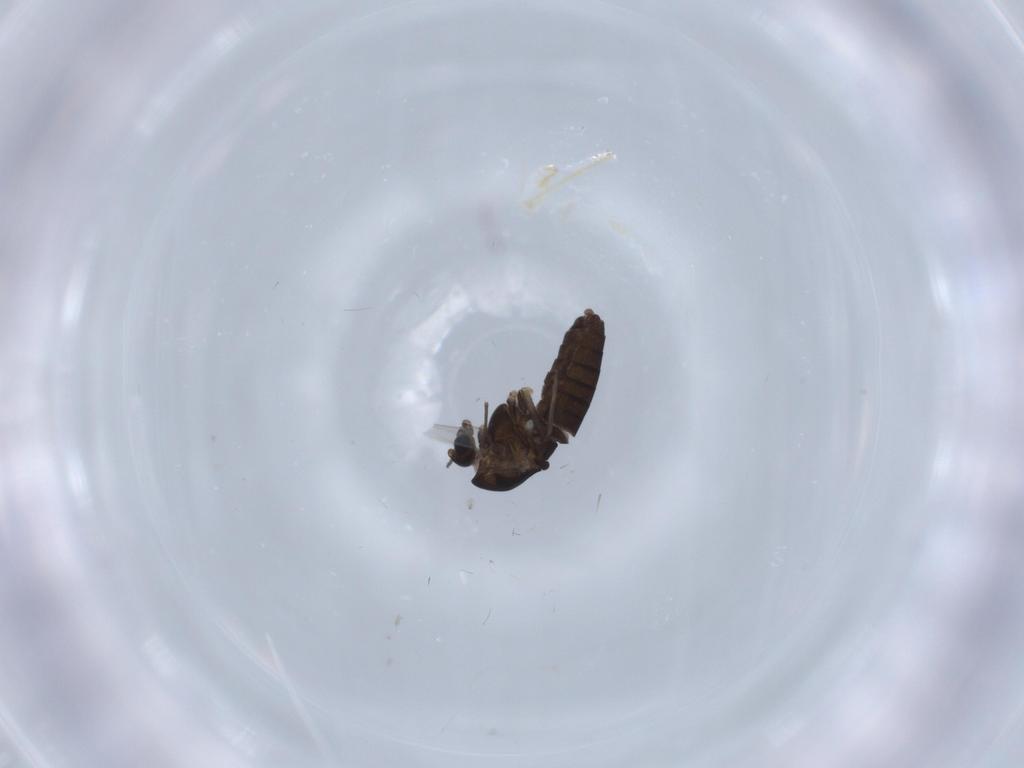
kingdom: Animalia
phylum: Arthropoda
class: Insecta
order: Diptera
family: Chironomidae
